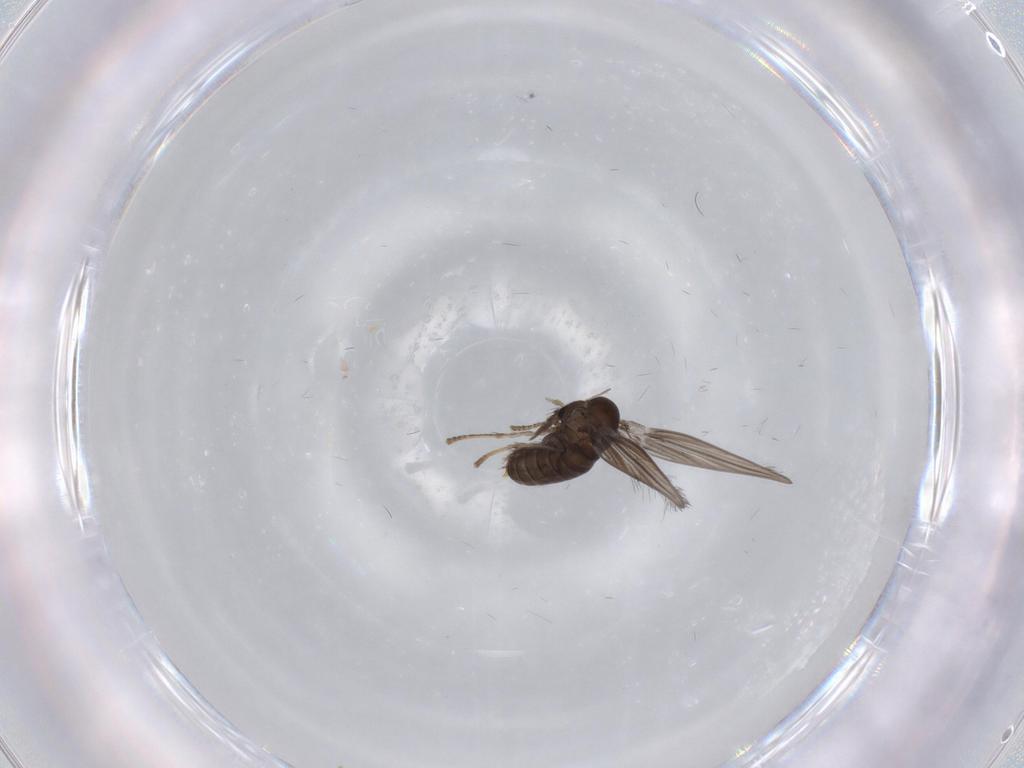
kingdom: Animalia
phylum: Arthropoda
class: Insecta
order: Diptera
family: Psychodidae
